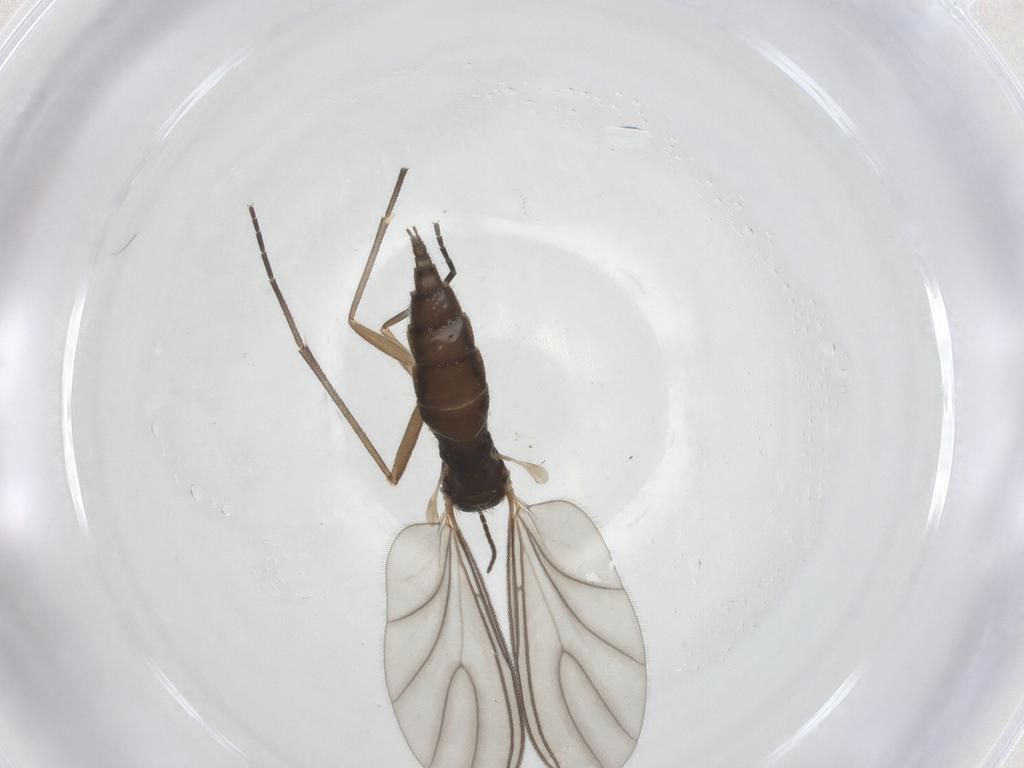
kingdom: Animalia
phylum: Arthropoda
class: Insecta
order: Diptera
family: Sciaridae
